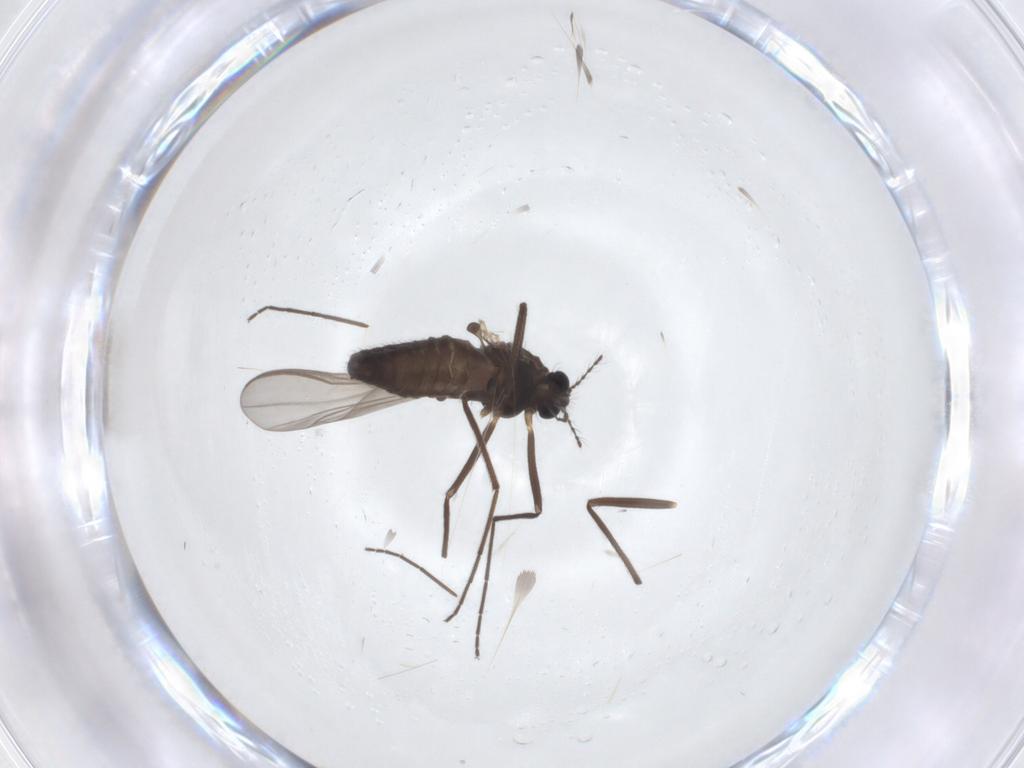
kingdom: Animalia
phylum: Arthropoda
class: Insecta
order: Diptera
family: Chironomidae
